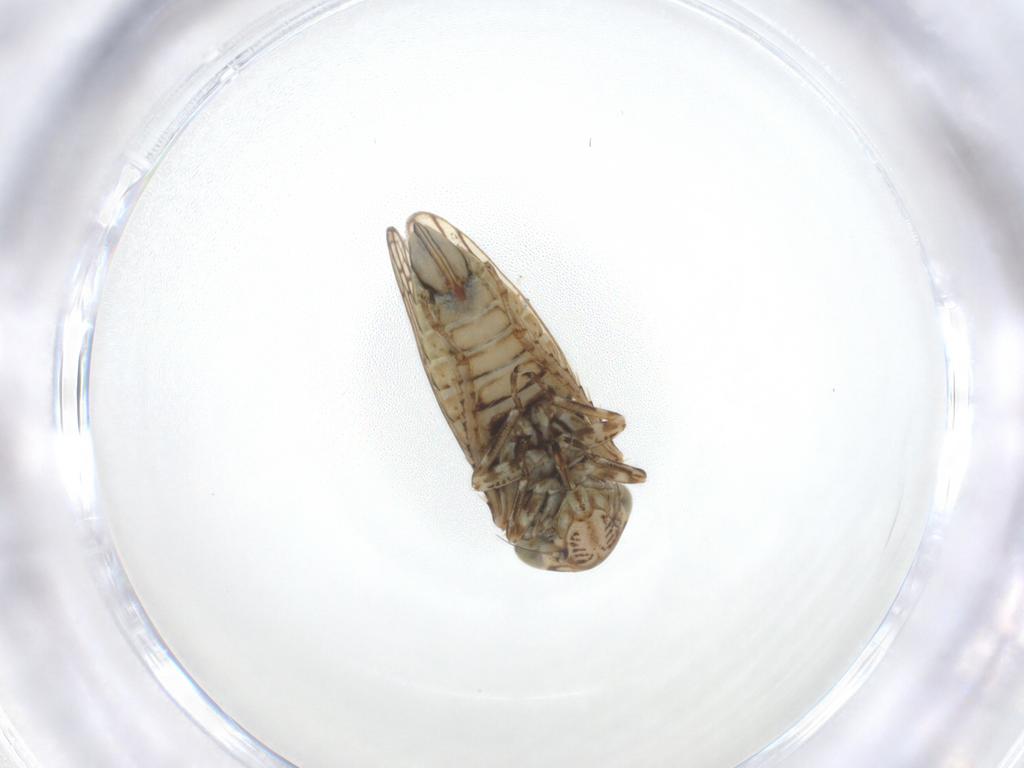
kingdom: Animalia
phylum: Arthropoda
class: Insecta
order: Hemiptera
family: Cicadellidae
